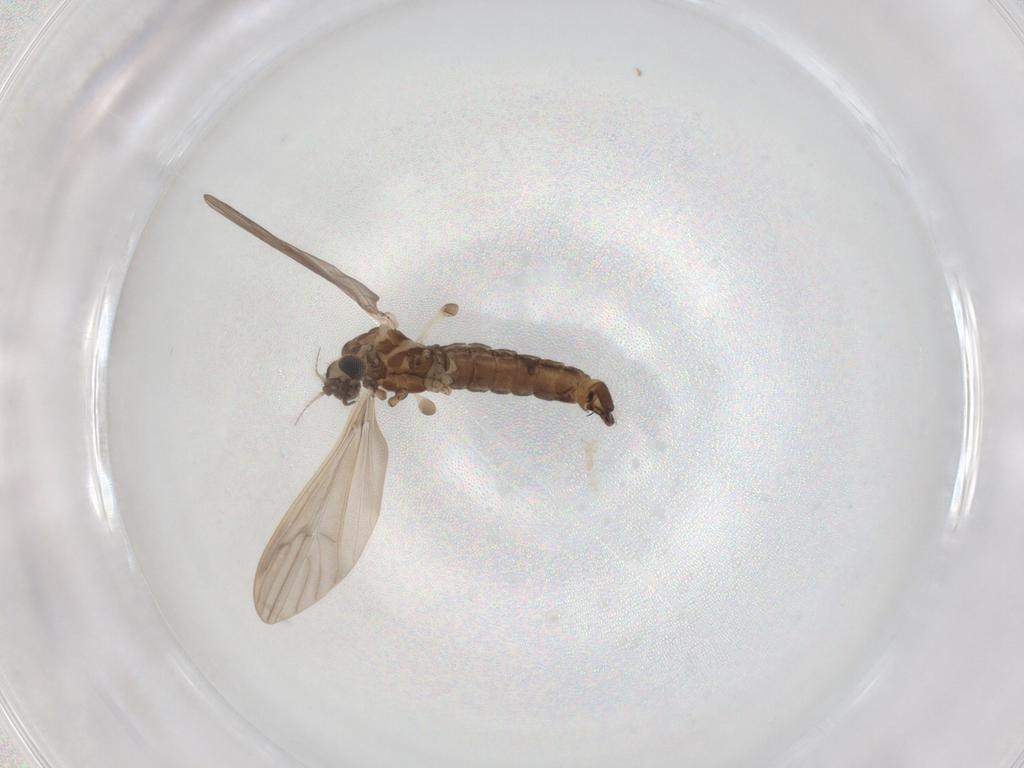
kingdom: Animalia
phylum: Arthropoda
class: Insecta
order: Diptera
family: Limoniidae
